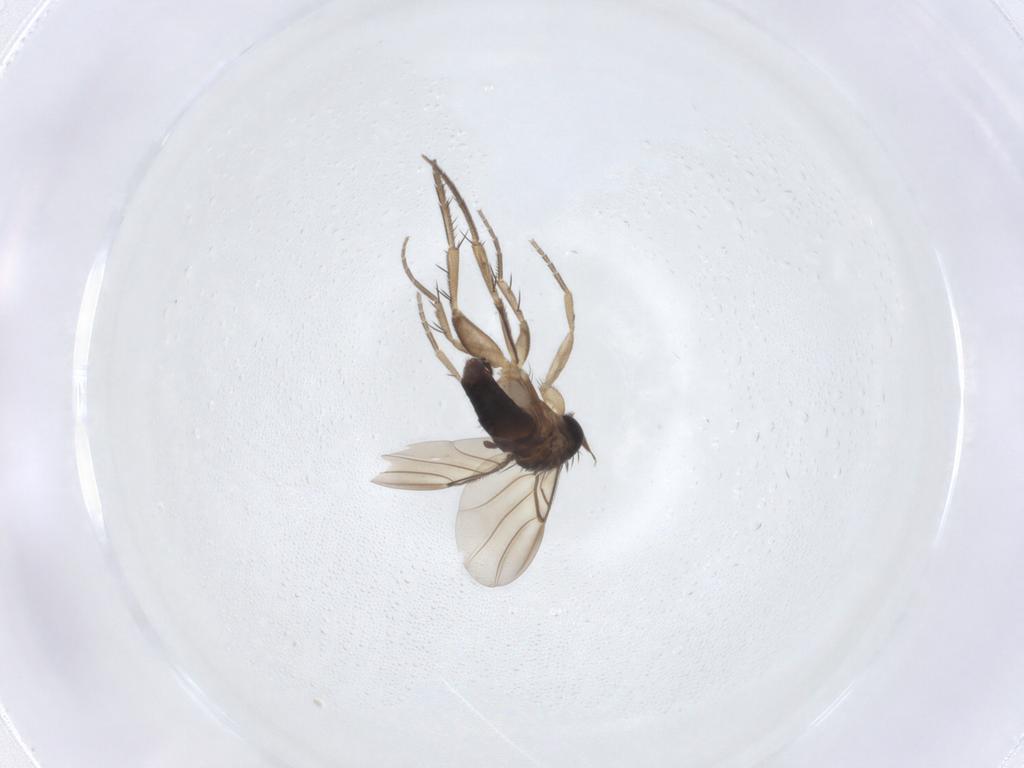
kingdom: Animalia
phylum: Arthropoda
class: Insecta
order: Diptera
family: Phoridae
